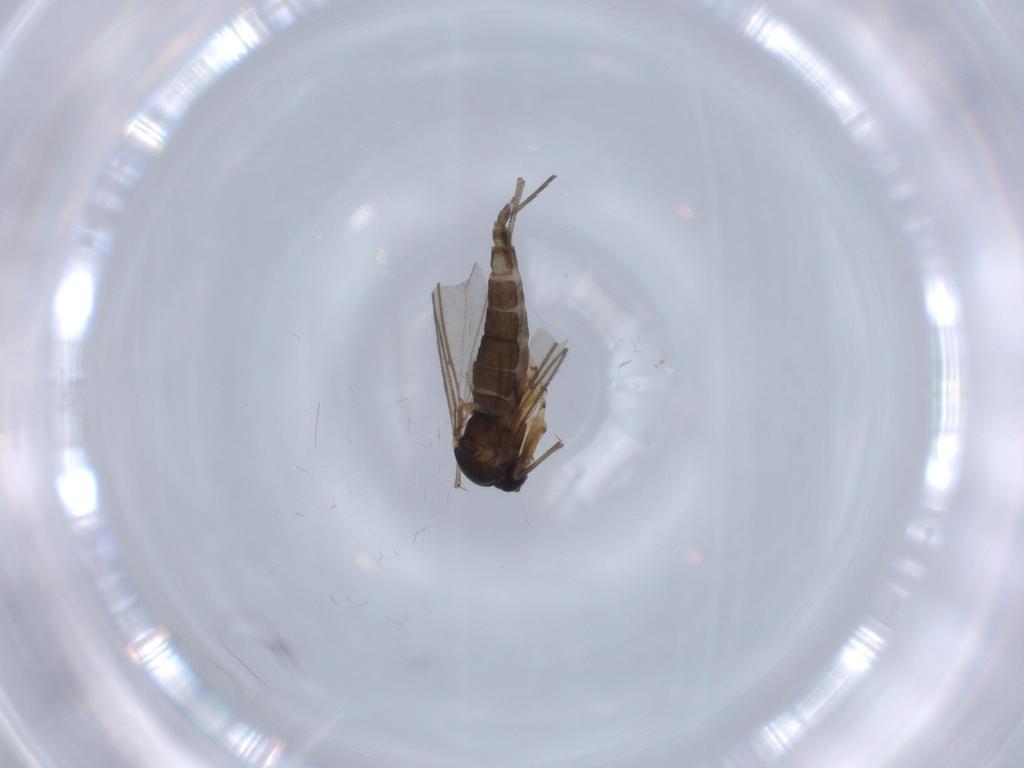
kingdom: Animalia
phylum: Arthropoda
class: Insecta
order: Diptera
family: Sciaridae
